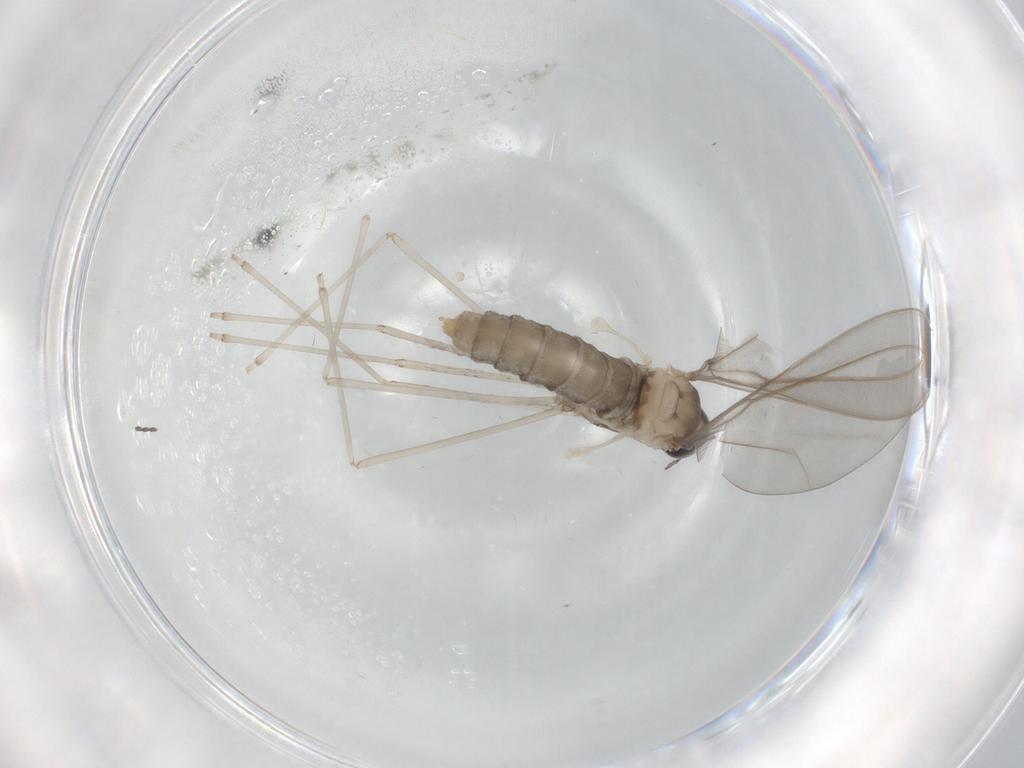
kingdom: Animalia
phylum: Arthropoda
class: Insecta
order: Diptera
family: Cecidomyiidae
